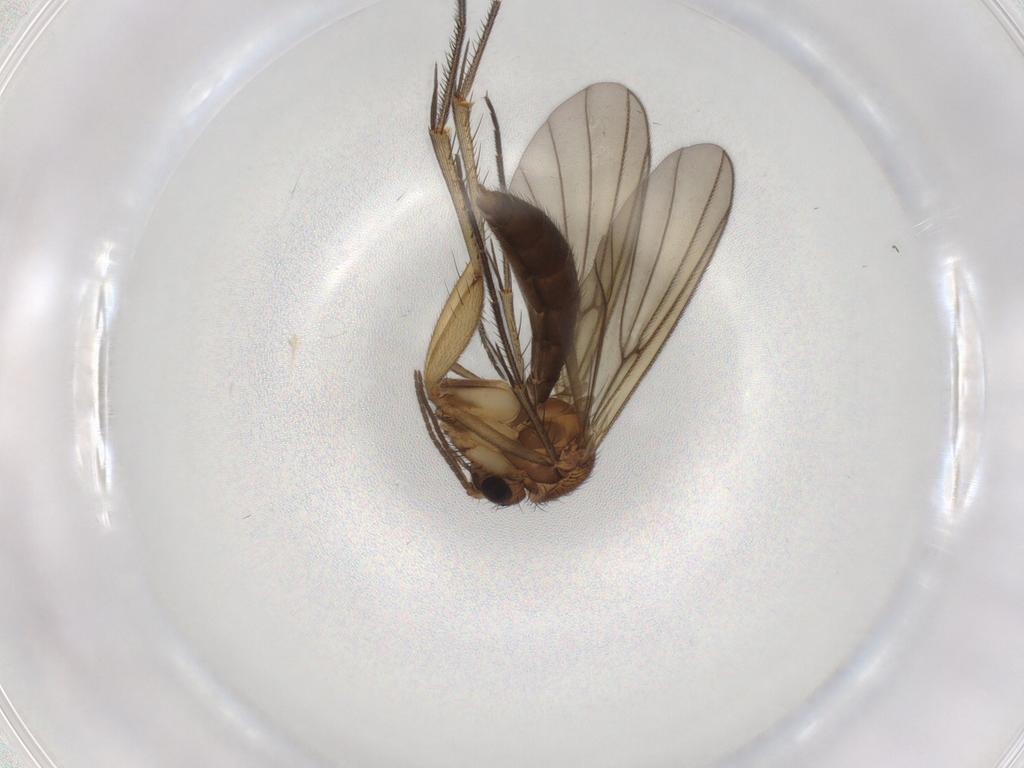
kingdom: Animalia
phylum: Arthropoda
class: Insecta
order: Diptera
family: Mycetophilidae
